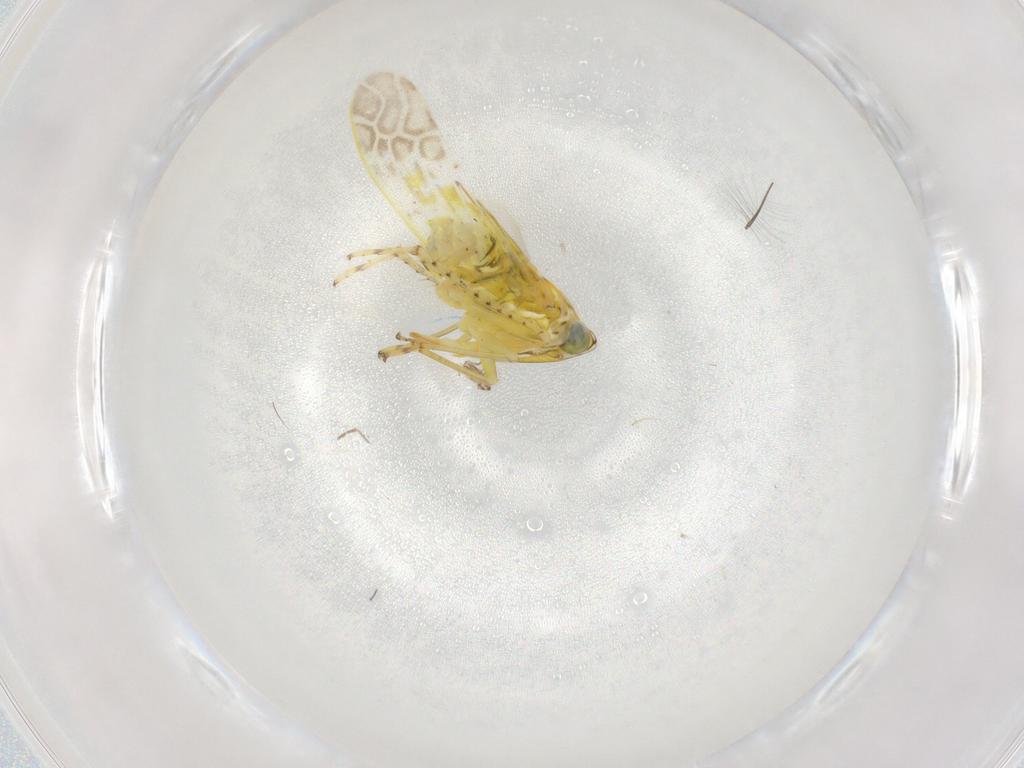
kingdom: Animalia
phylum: Arthropoda
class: Insecta
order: Hemiptera
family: Cicadellidae
